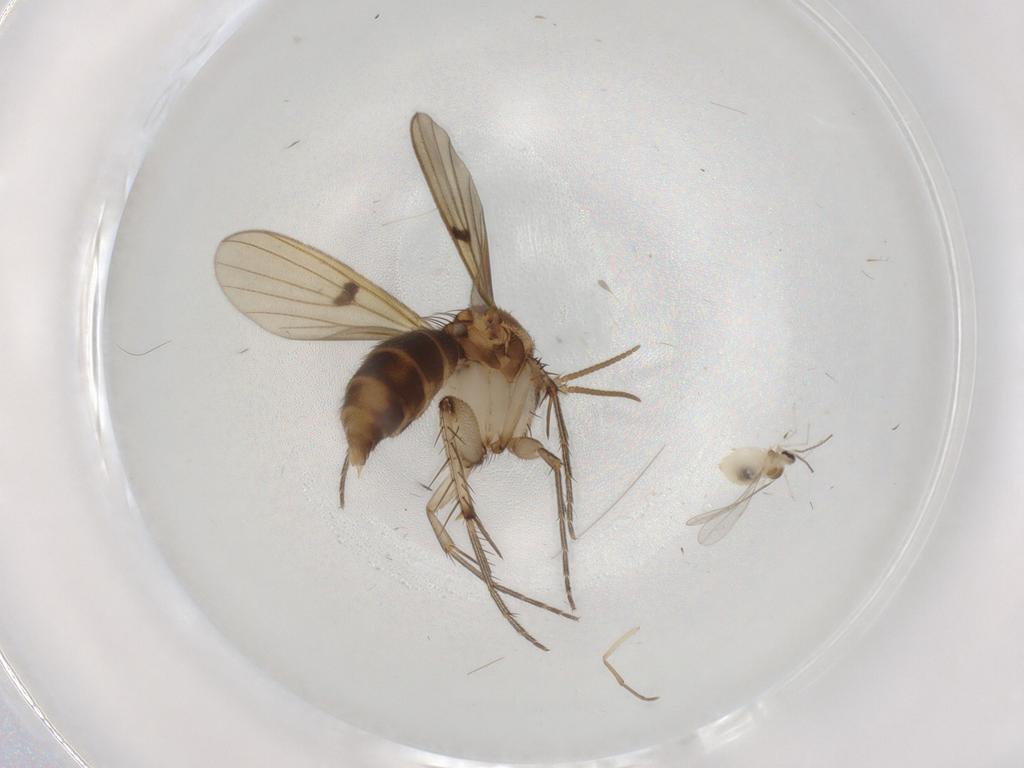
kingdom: Animalia
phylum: Arthropoda
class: Insecta
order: Diptera
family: Mycetophilidae
